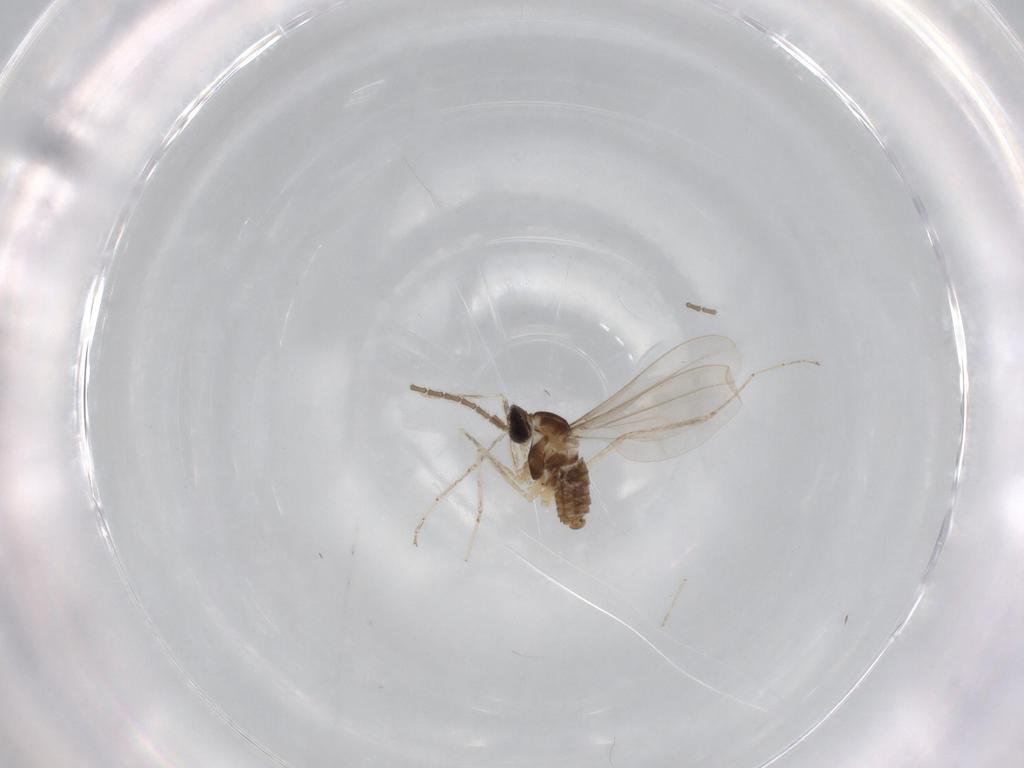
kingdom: Animalia
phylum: Arthropoda
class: Insecta
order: Diptera
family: Cecidomyiidae
